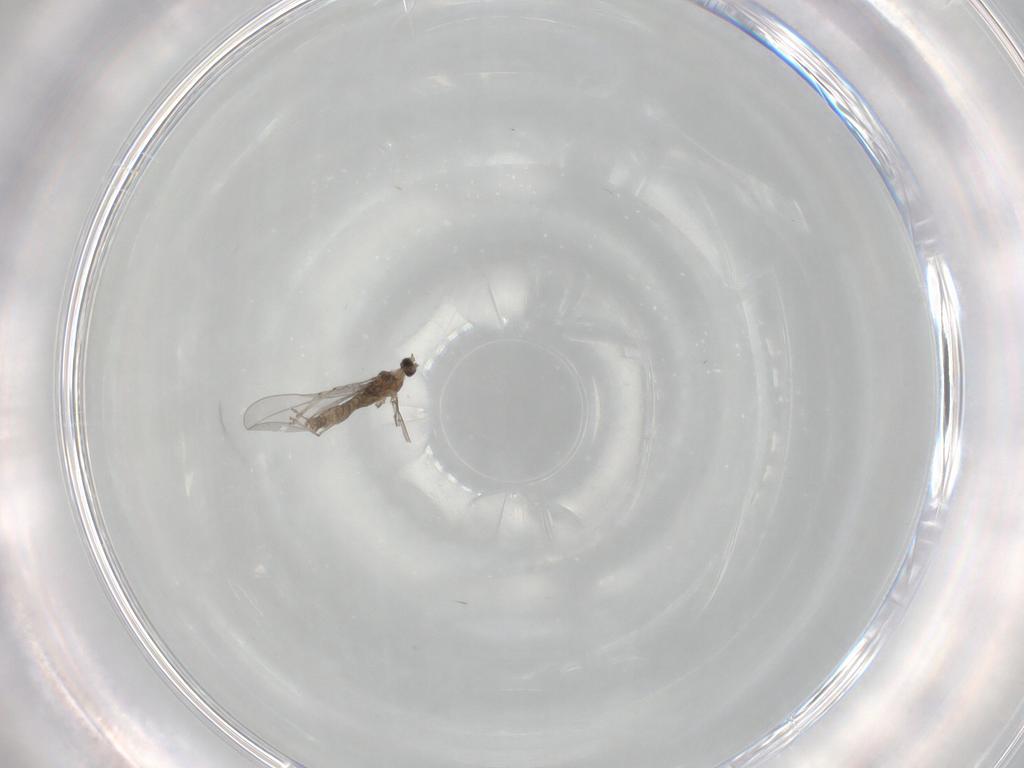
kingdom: Animalia
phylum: Arthropoda
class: Insecta
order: Diptera
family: Cecidomyiidae
